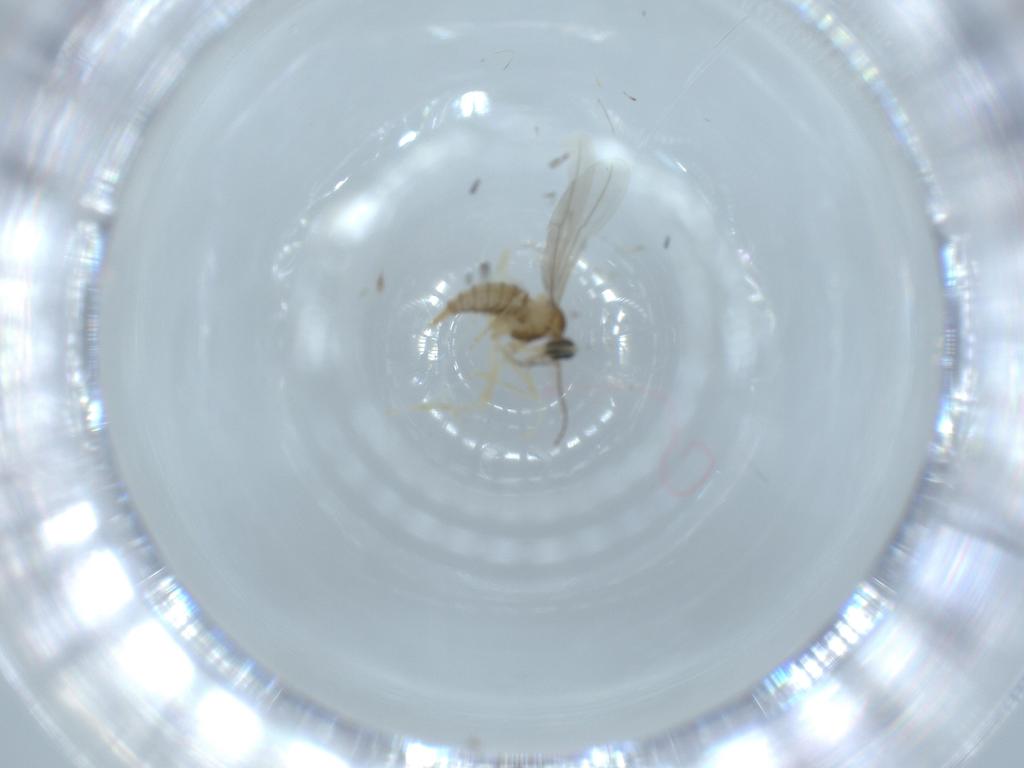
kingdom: Animalia
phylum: Arthropoda
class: Insecta
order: Diptera
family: Cecidomyiidae
